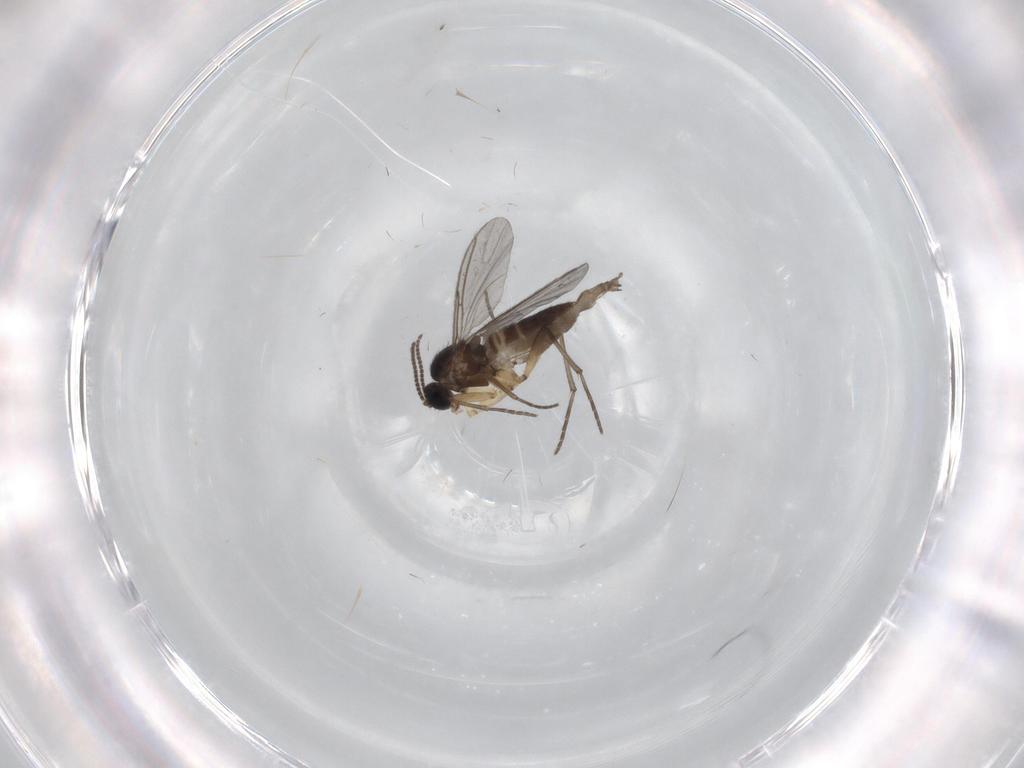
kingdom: Animalia
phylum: Arthropoda
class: Insecta
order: Diptera
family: Sciaridae
